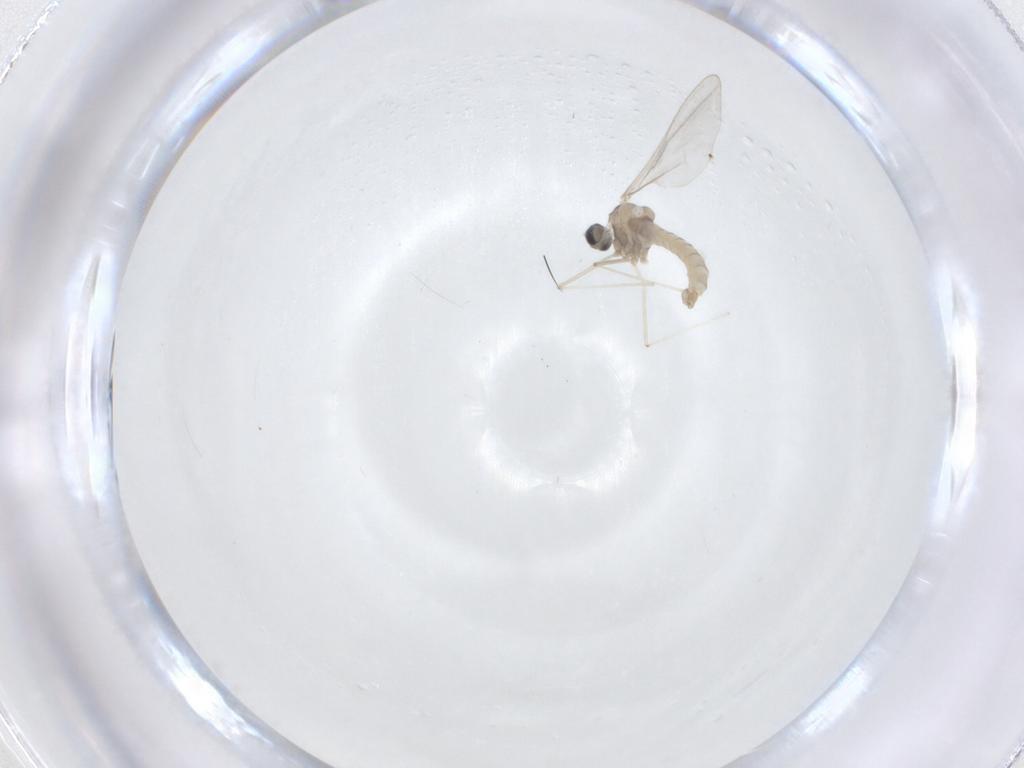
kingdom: Animalia
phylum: Arthropoda
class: Insecta
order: Diptera
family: Cecidomyiidae
